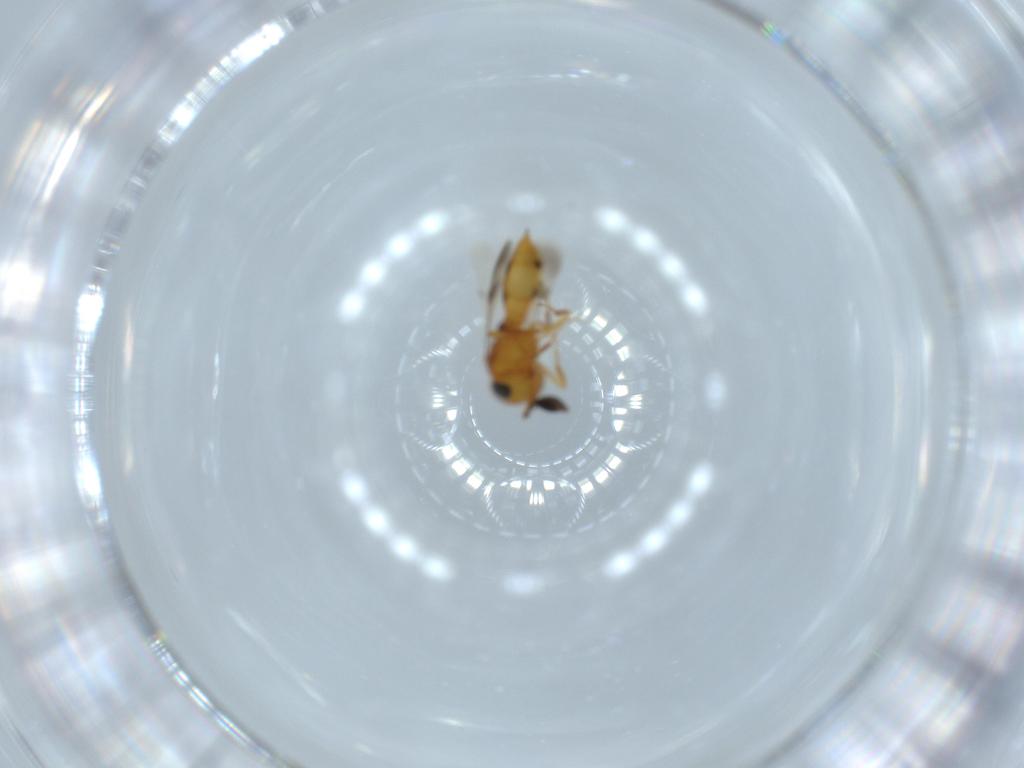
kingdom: Animalia
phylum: Arthropoda
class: Insecta
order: Hymenoptera
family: Scelionidae
